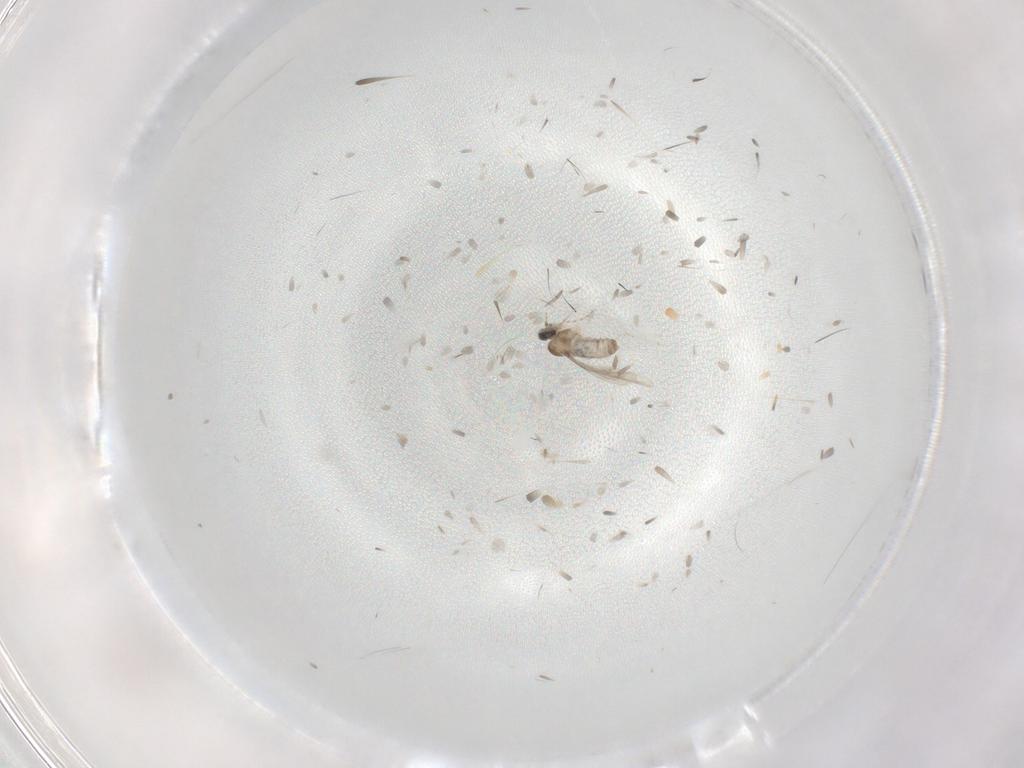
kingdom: Animalia
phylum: Arthropoda
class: Insecta
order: Diptera
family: Cecidomyiidae
